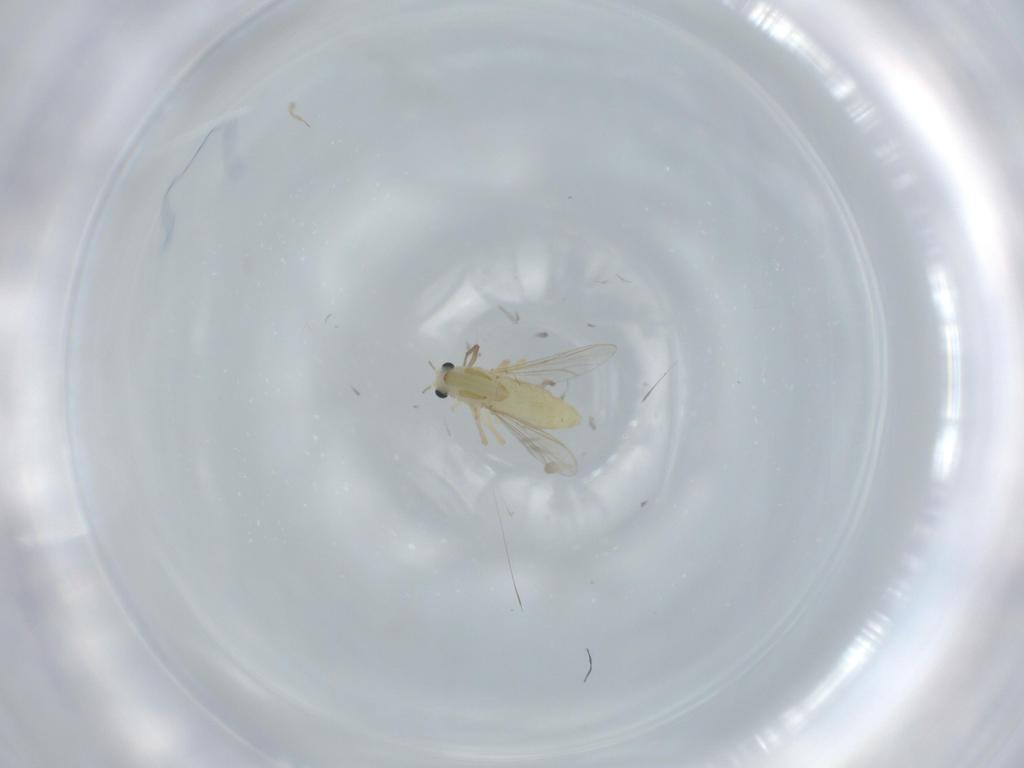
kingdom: Animalia
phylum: Arthropoda
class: Insecta
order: Diptera
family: Chironomidae
